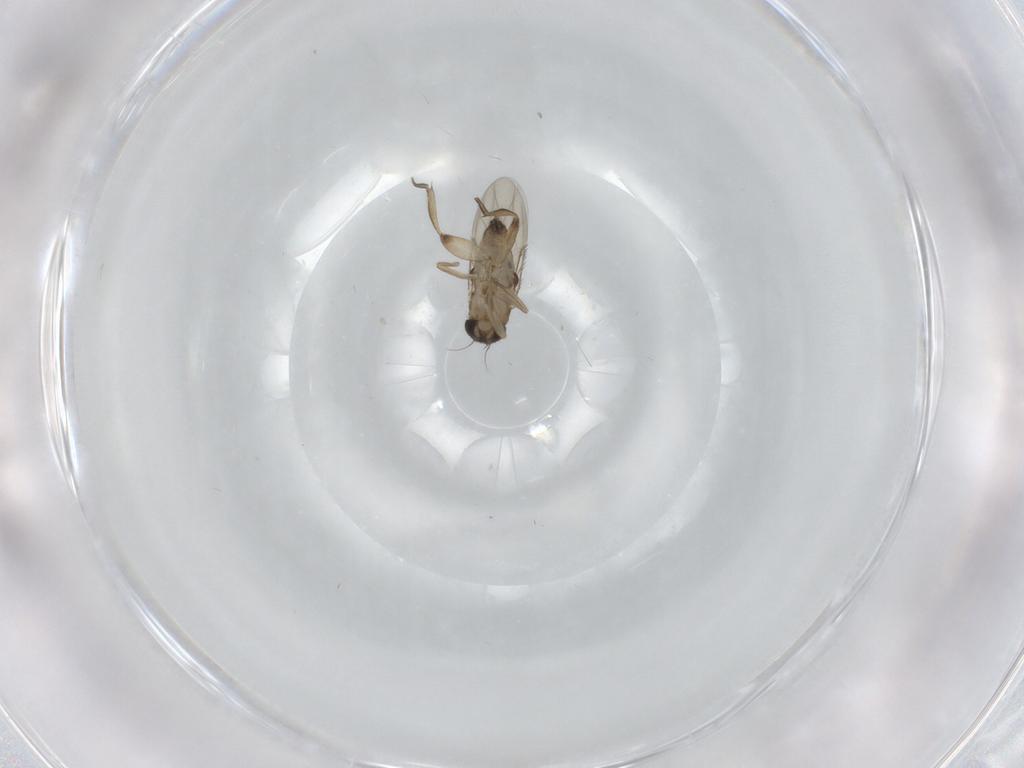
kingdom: Animalia
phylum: Arthropoda
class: Insecta
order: Diptera
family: Phoridae
